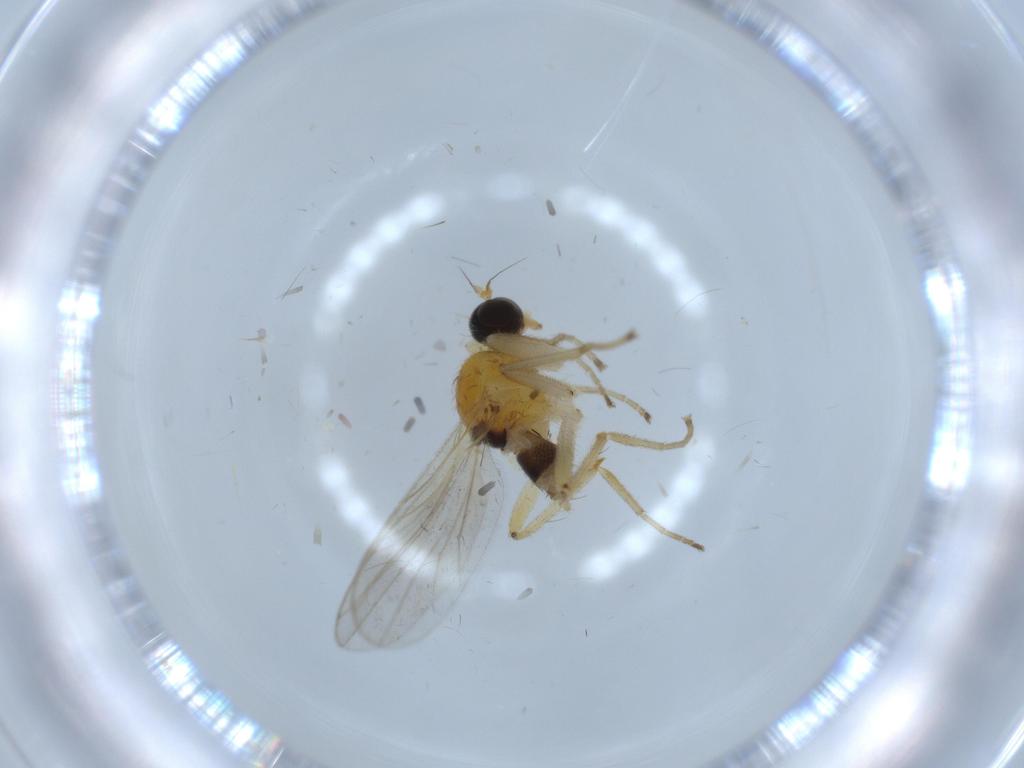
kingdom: Animalia
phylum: Arthropoda
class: Insecta
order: Diptera
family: Hybotidae
